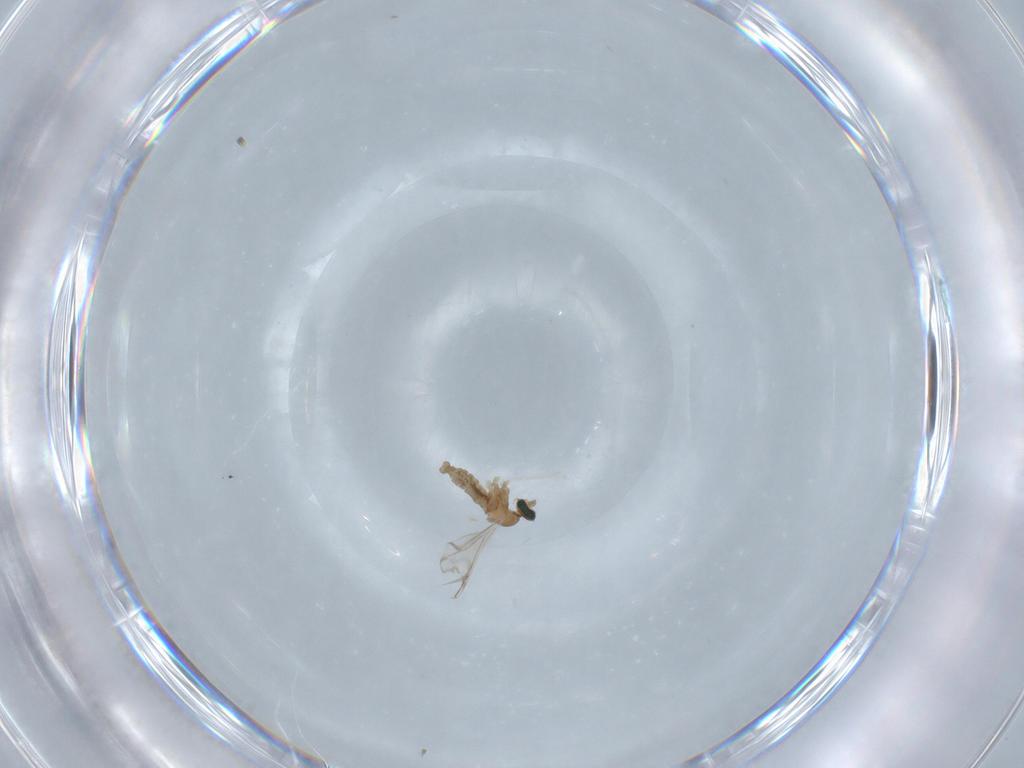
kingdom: Animalia
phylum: Arthropoda
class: Insecta
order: Diptera
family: Cecidomyiidae
